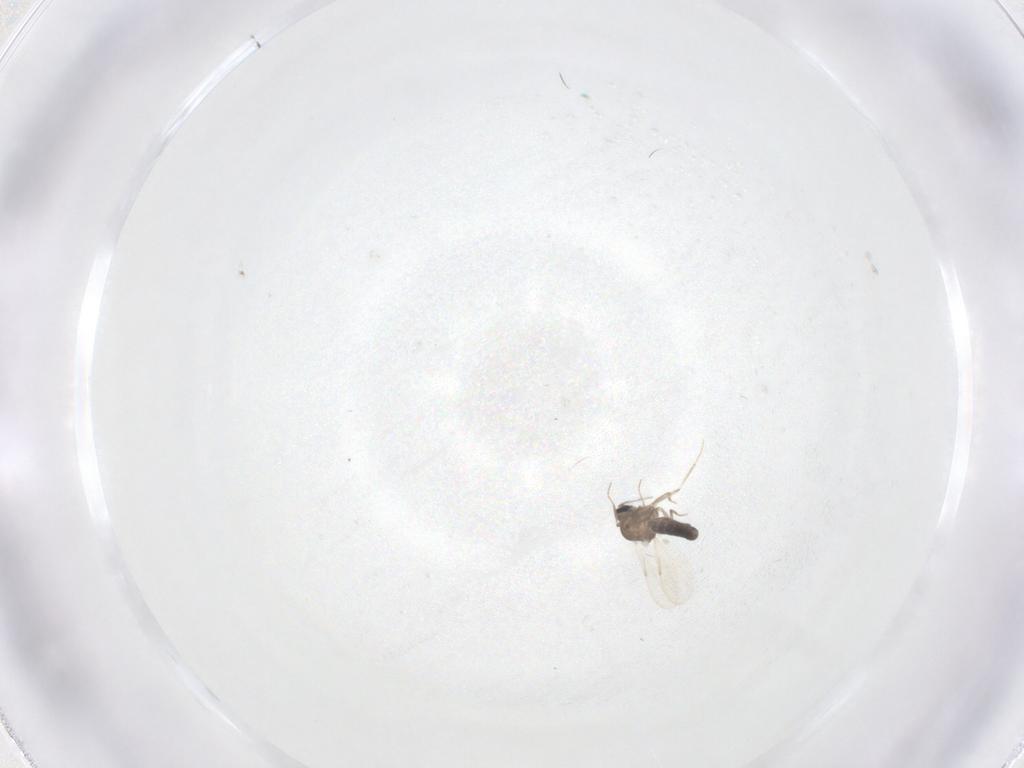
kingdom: Animalia
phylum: Arthropoda
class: Insecta
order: Diptera
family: Ceratopogonidae
